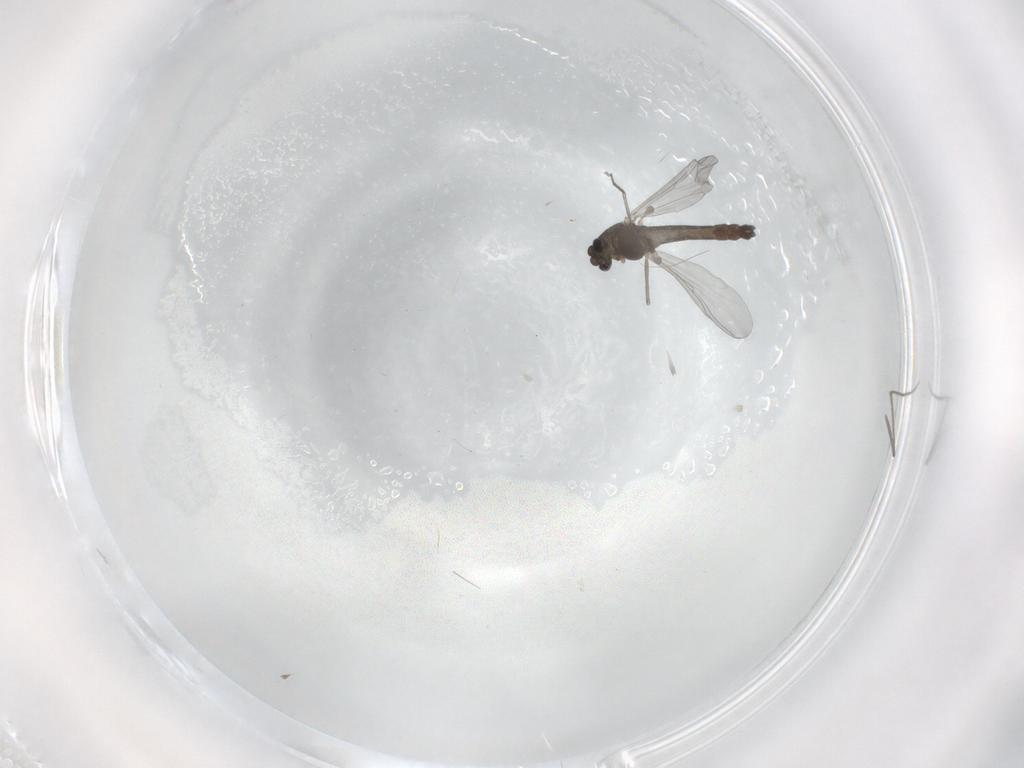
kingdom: Animalia
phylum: Arthropoda
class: Insecta
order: Diptera
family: Chironomidae
